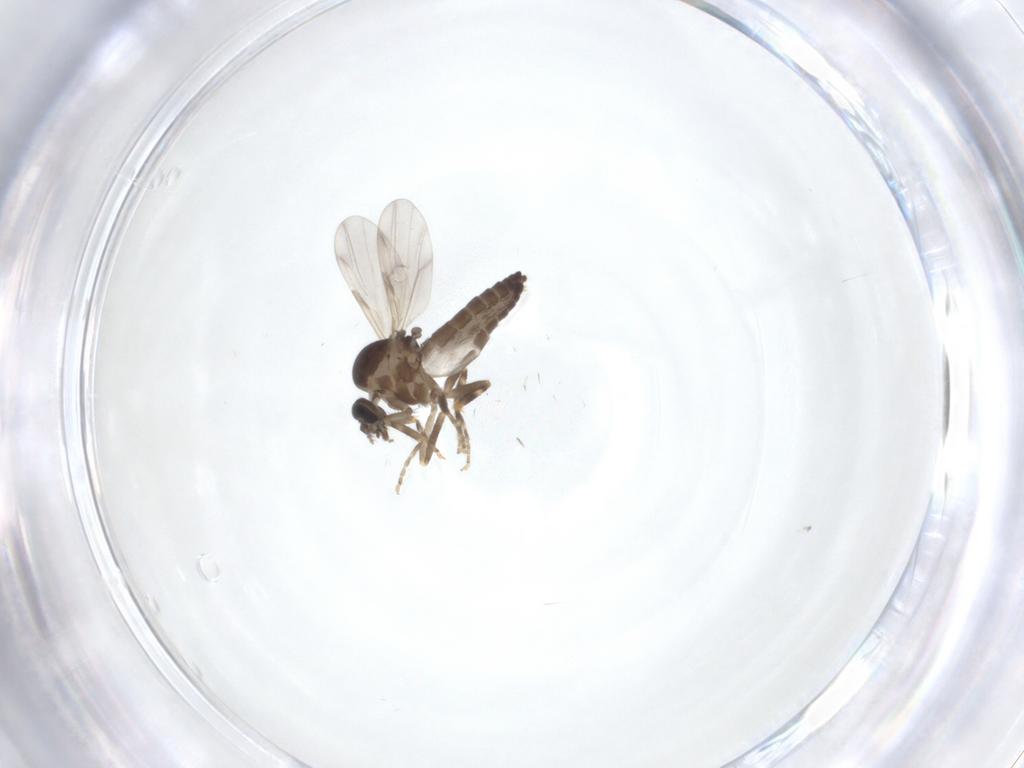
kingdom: Animalia
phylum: Arthropoda
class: Insecta
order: Diptera
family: Ceratopogonidae
